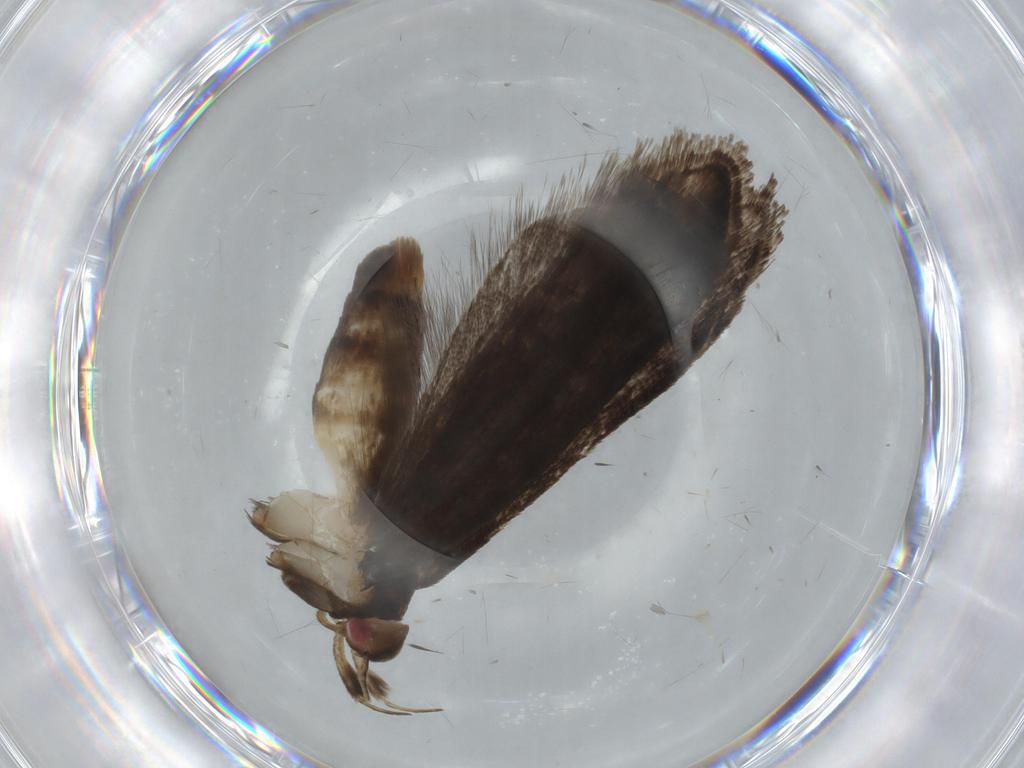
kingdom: Animalia
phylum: Arthropoda
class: Insecta
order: Lepidoptera
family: Gelechiidae
